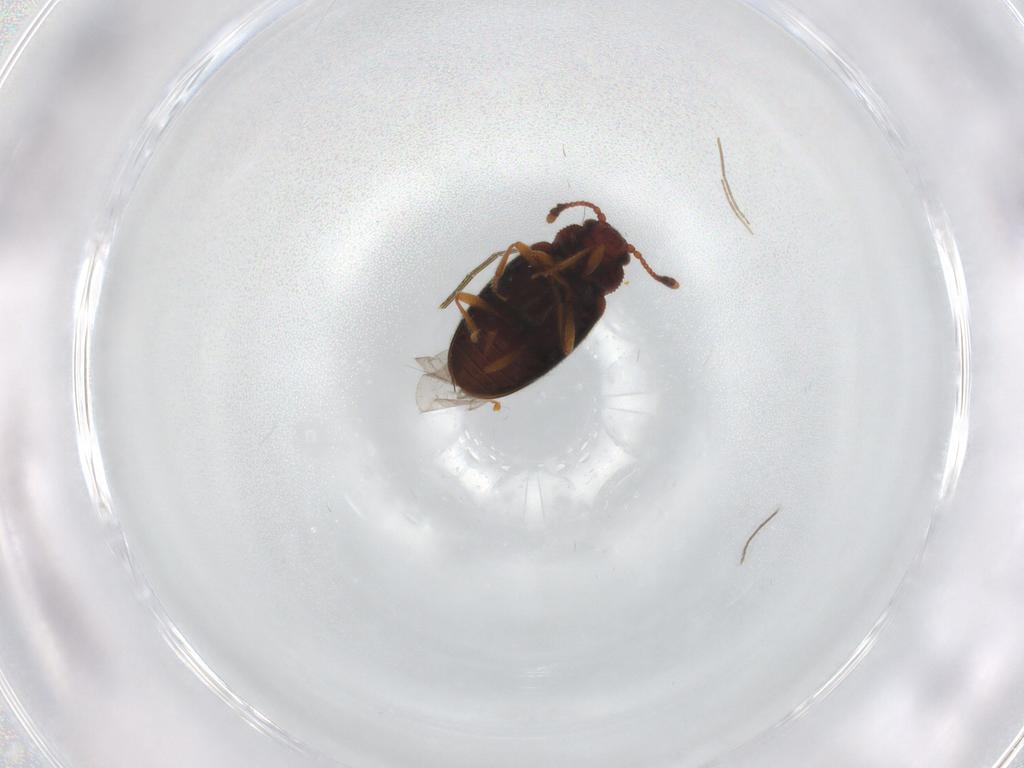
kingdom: Animalia
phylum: Arthropoda
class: Insecta
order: Coleoptera
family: Cryptophagidae
